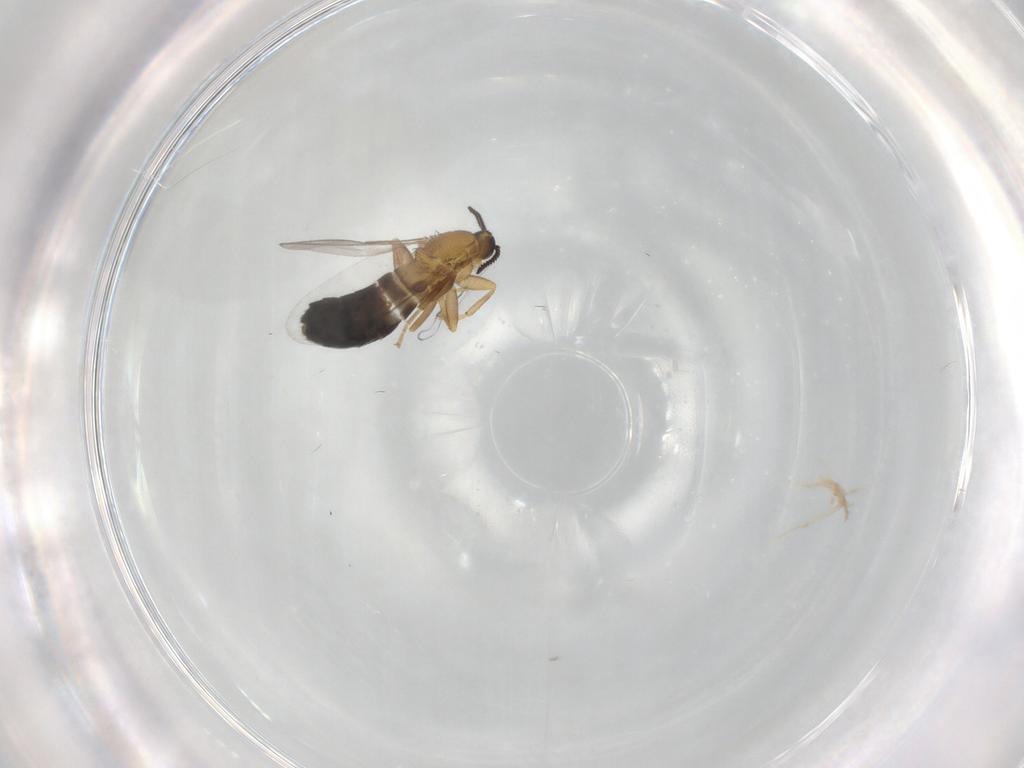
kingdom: Animalia
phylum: Arthropoda
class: Insecta
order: Diptera
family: Scatopsidae
